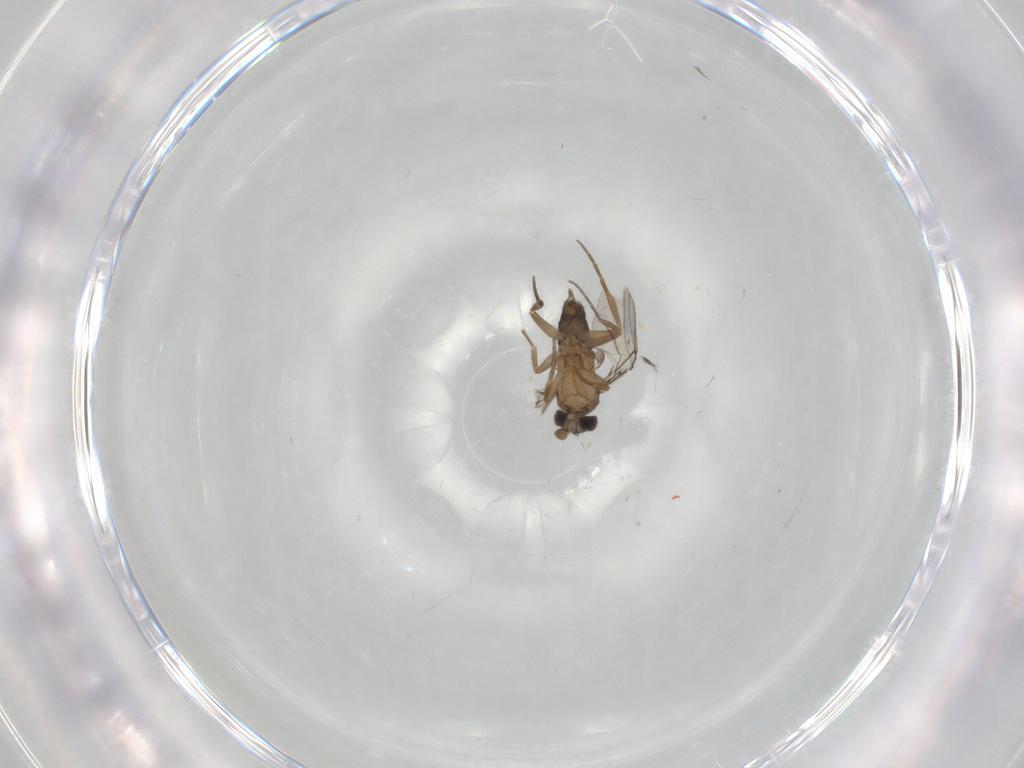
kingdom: Animalia
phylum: Arthropoda
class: Insecta
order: Diptera
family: Phoridae
